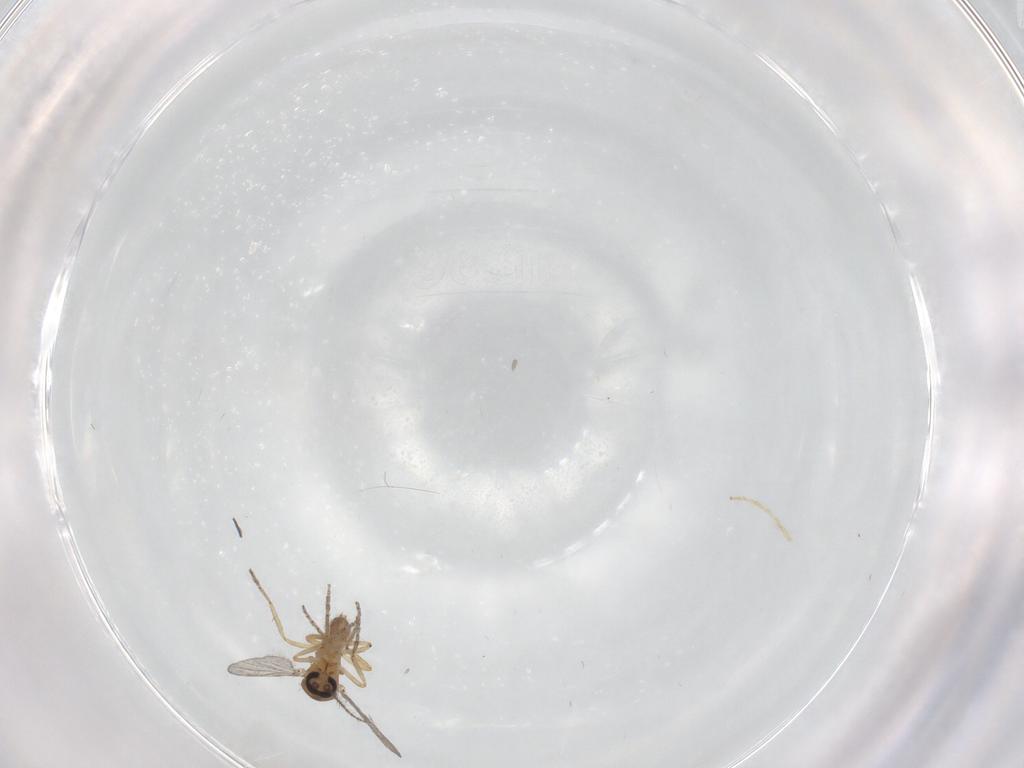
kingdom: Animalia
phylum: Arthropoda
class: Insecta
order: Diptera
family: Chironomidae
